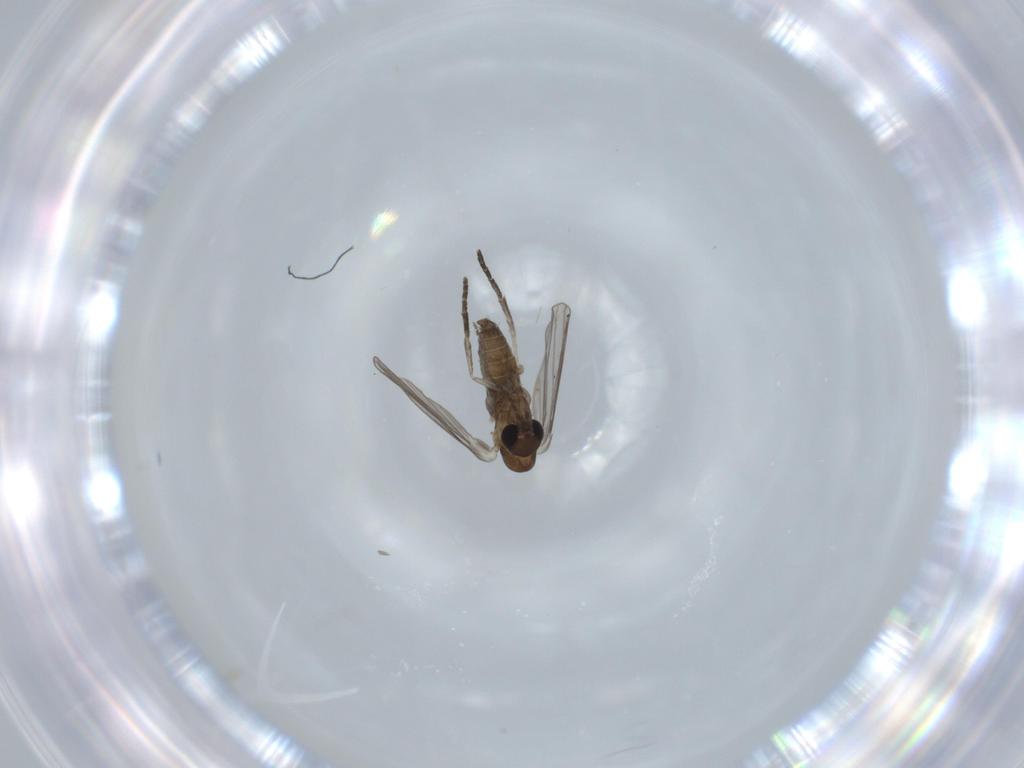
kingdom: Animalia
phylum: Arthropoda
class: Insecta
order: Diptera
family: Psychodidae
